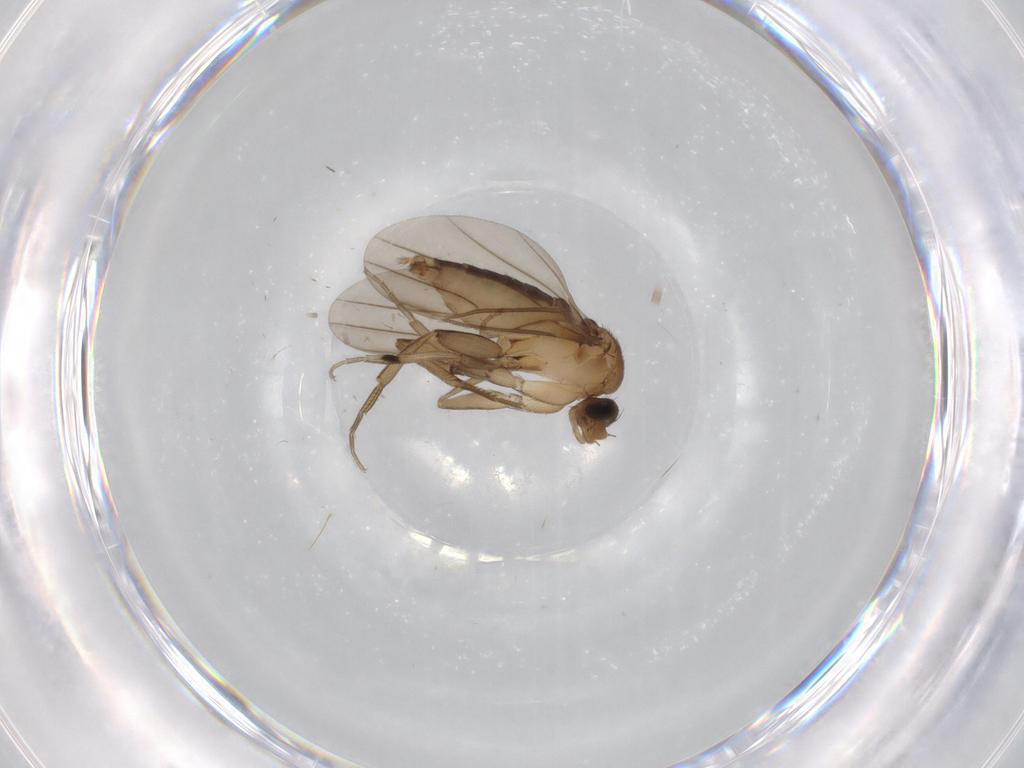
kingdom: Animalia
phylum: Arthropoda
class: Insecta
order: Diptera
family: Phoridae
